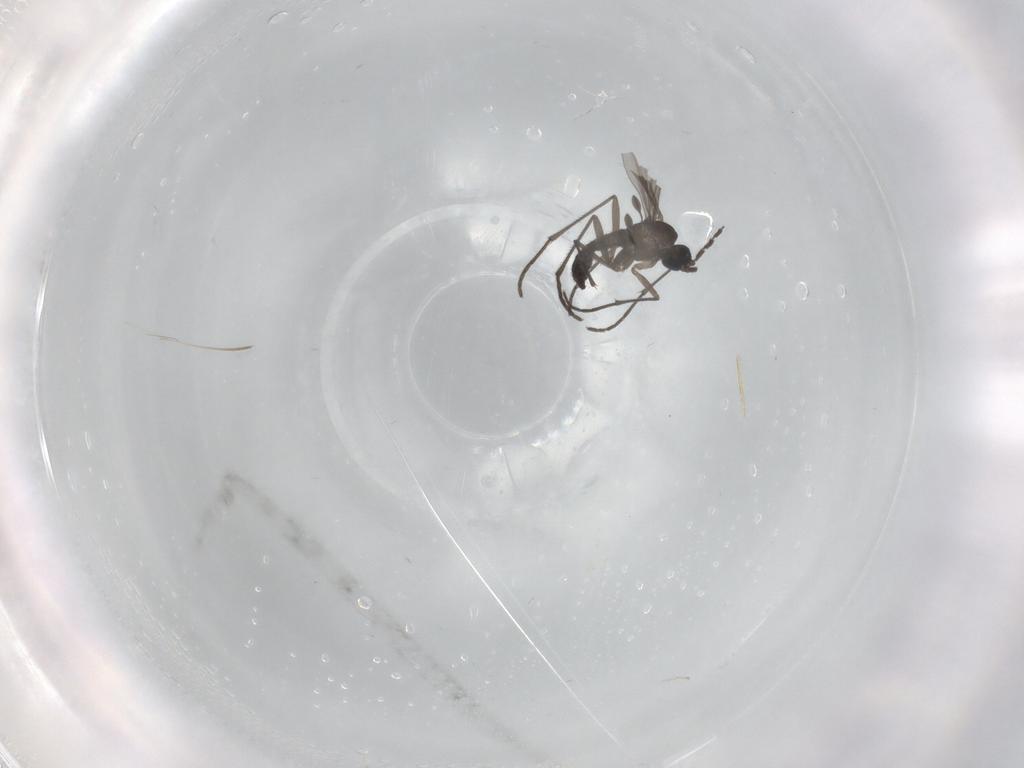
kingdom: Animalia
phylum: Arthropoda
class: Insecta
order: Diptera
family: Sciaridae
